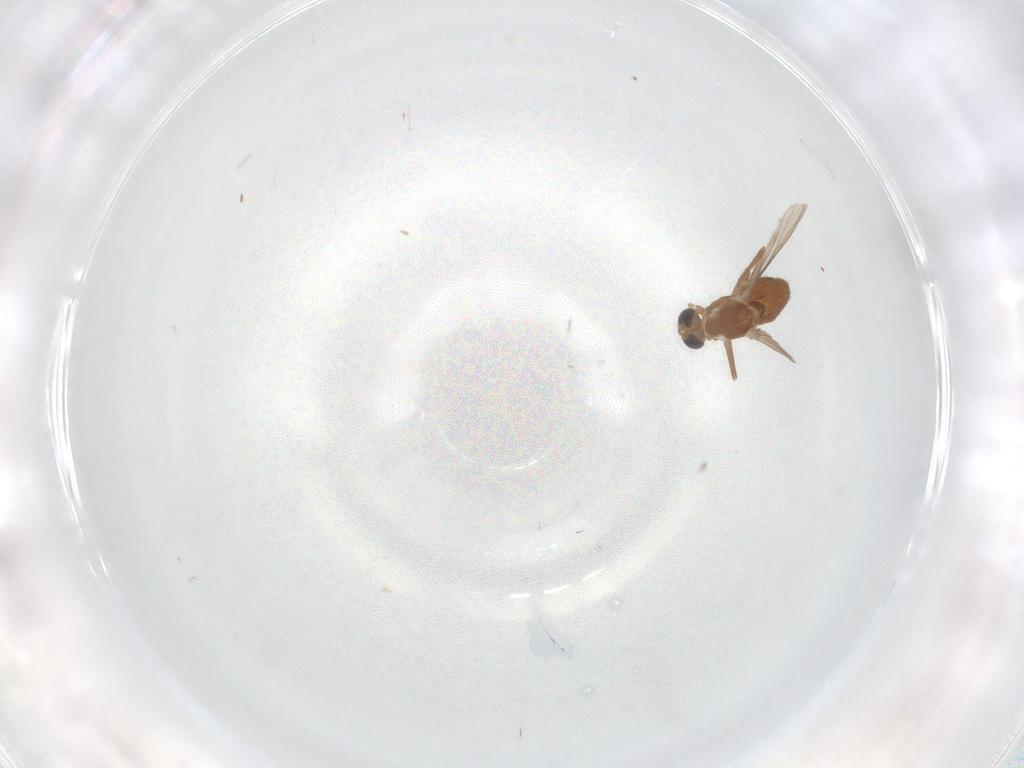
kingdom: Animalia
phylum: Arthropoda
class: Insecta
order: Diptera
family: Chironomidae
